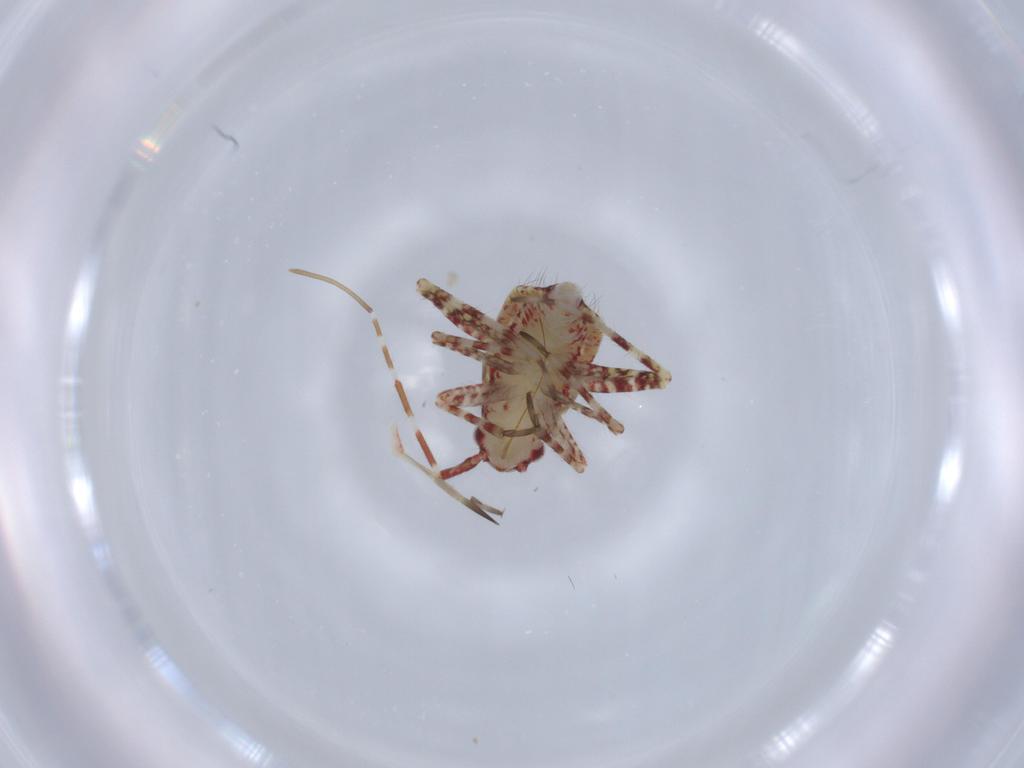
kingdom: Animalia
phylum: Arthropoda
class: Insecta
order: Hemiptera
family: Miridae
